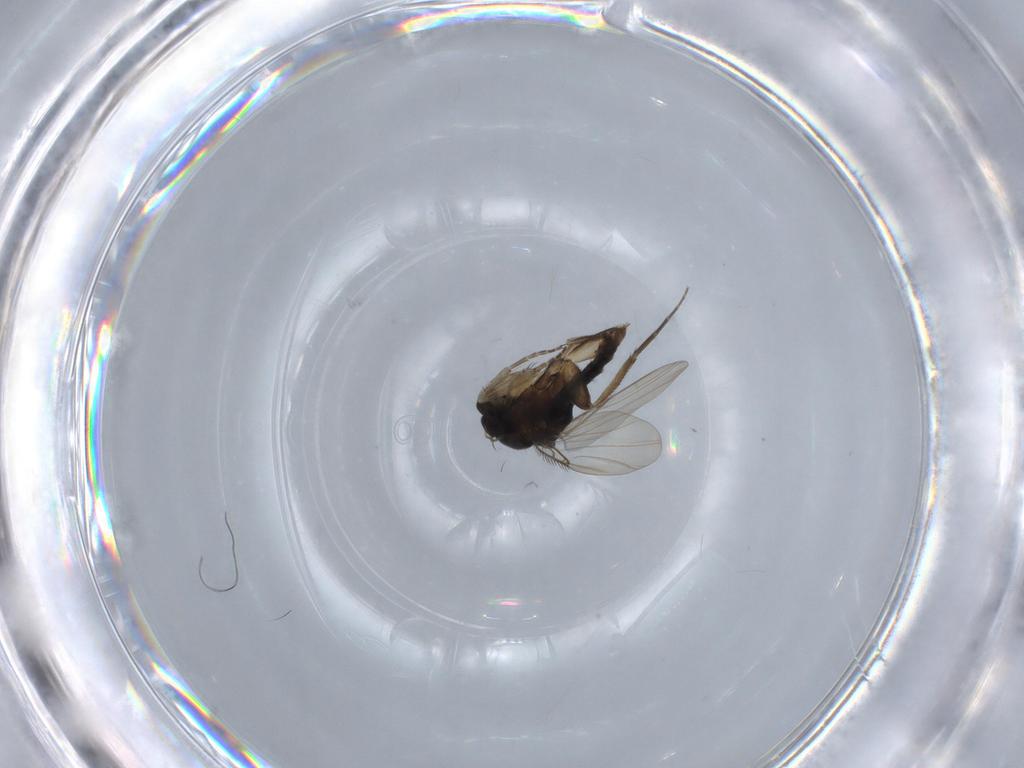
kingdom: Animalia
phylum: Arthropoda
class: Insecta
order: Diptera
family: Phoridae
